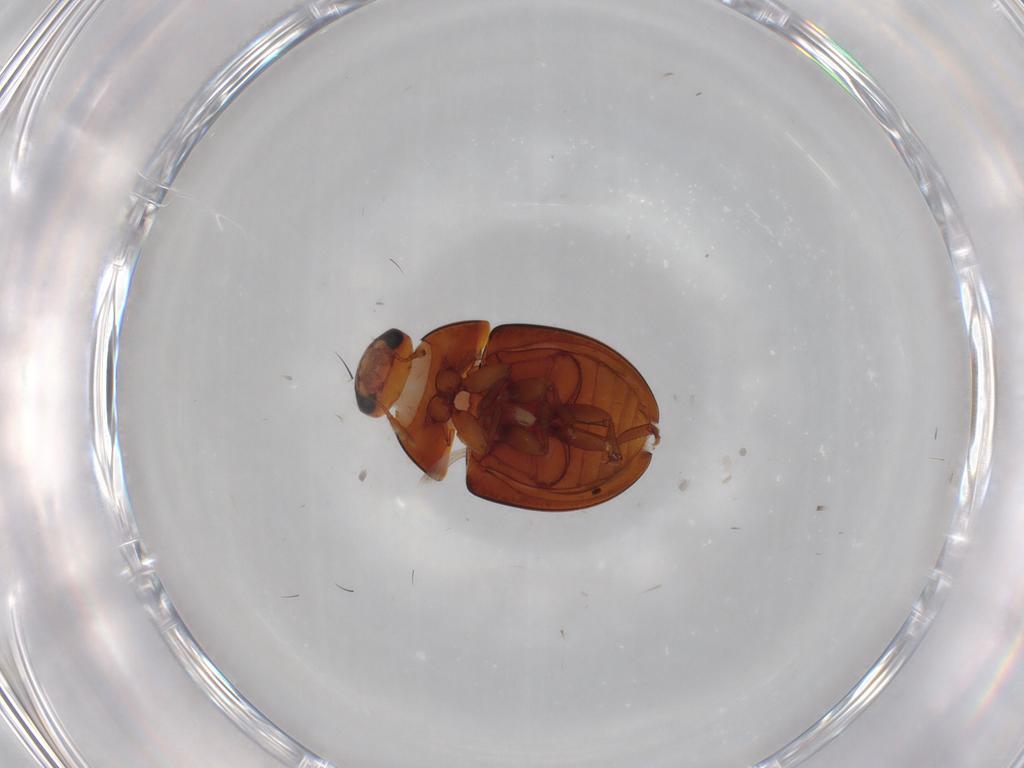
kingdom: Animalia
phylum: Arthropoda
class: Insecta
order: Coleoptera
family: Phalacridae
